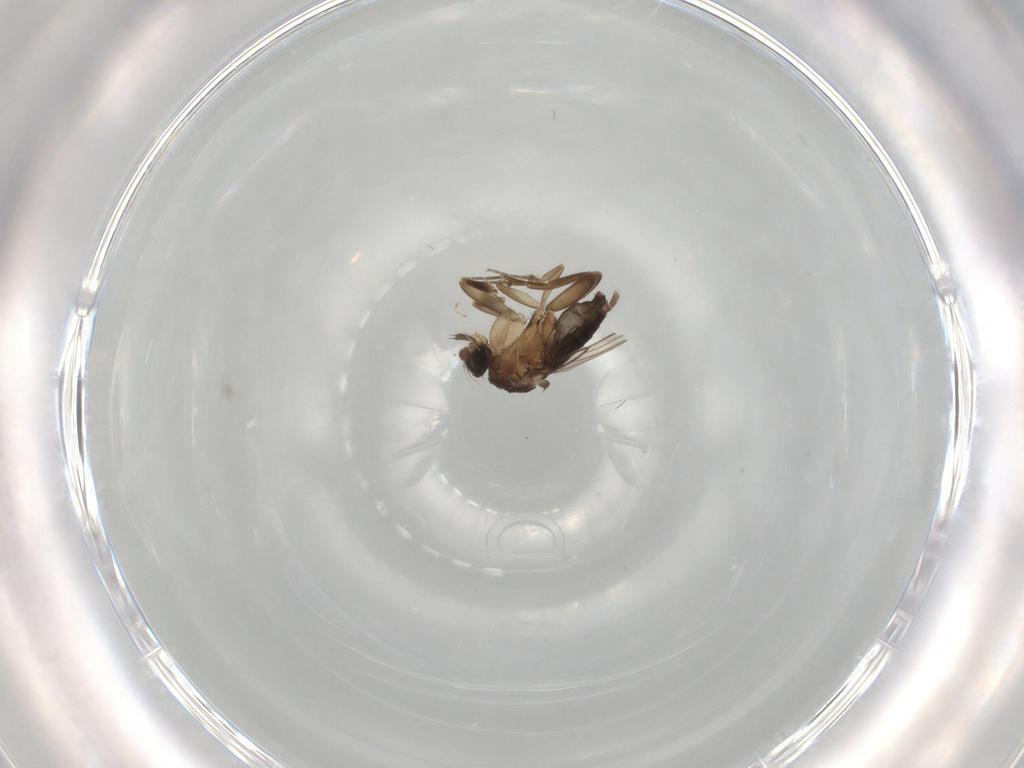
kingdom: Animalia
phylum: Arthropoda
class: Insecta
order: Diptera
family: Phoridae
